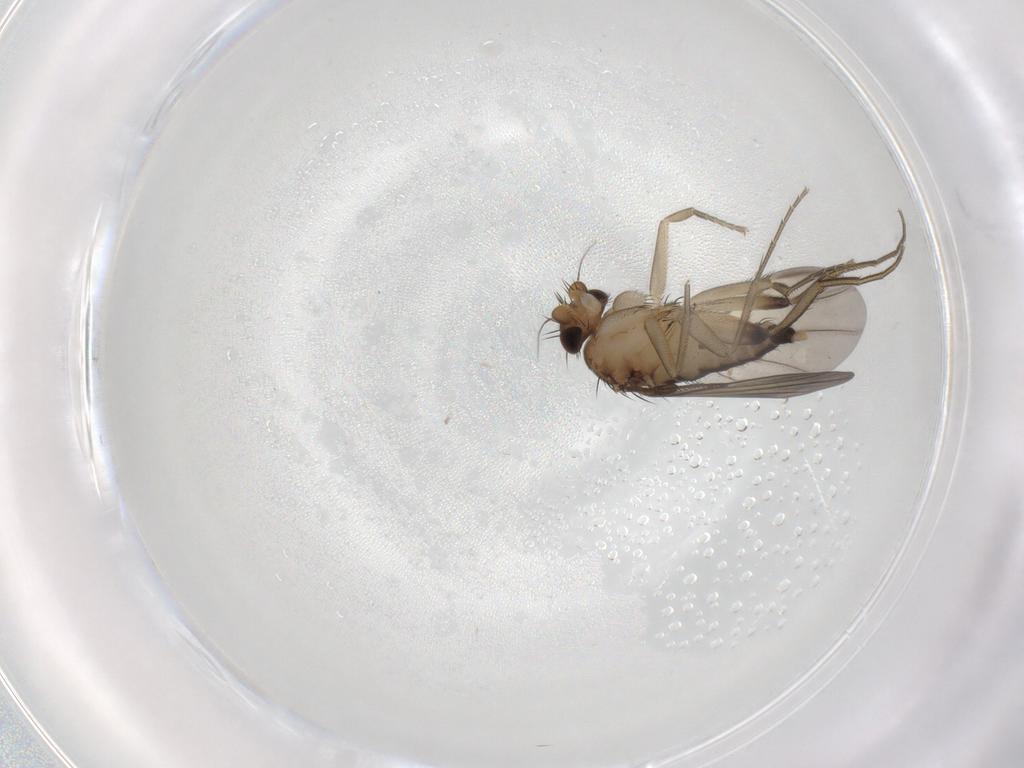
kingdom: Animalia
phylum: Arthropoda
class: Insecta
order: Diptera
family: Phoridae
